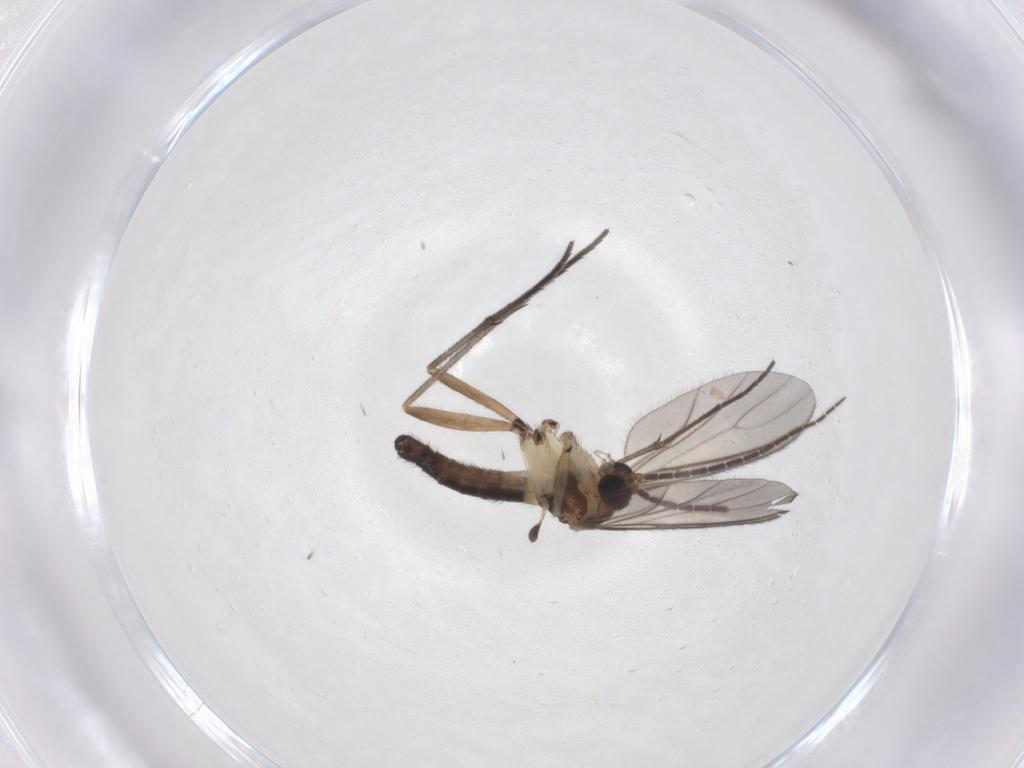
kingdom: Animalia
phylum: Arthropoda
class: Insecta
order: Diptera
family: Sciaridae
